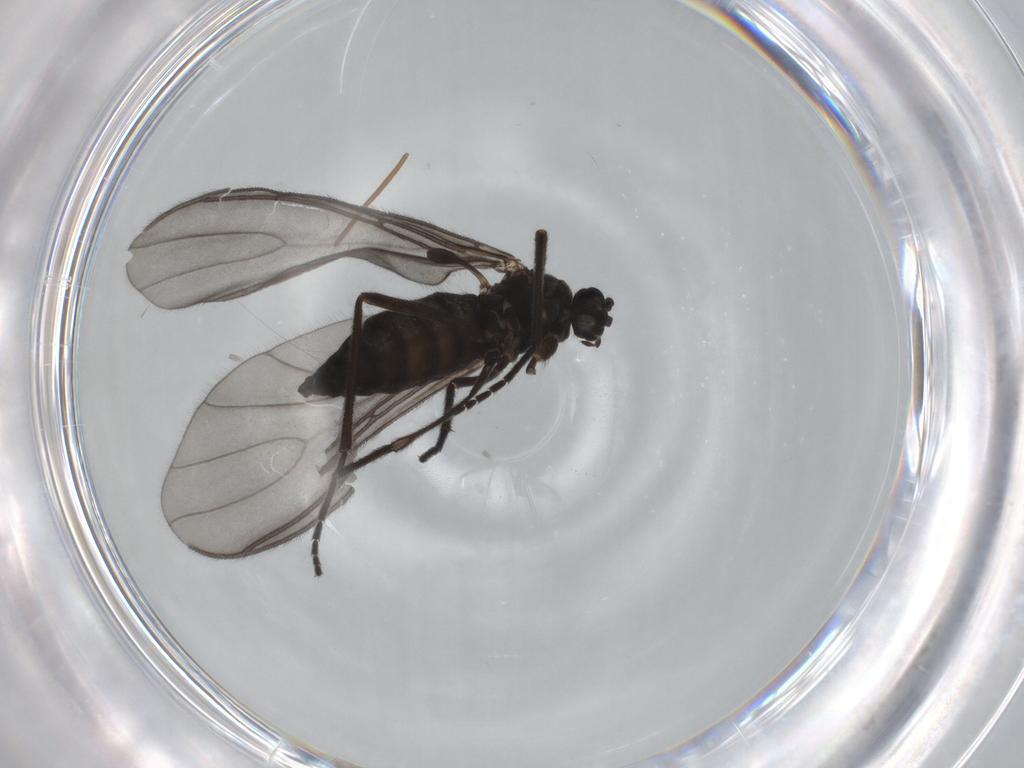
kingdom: Animalia
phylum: Arthropoda
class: Insecta
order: Diptera
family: Sciaridae
